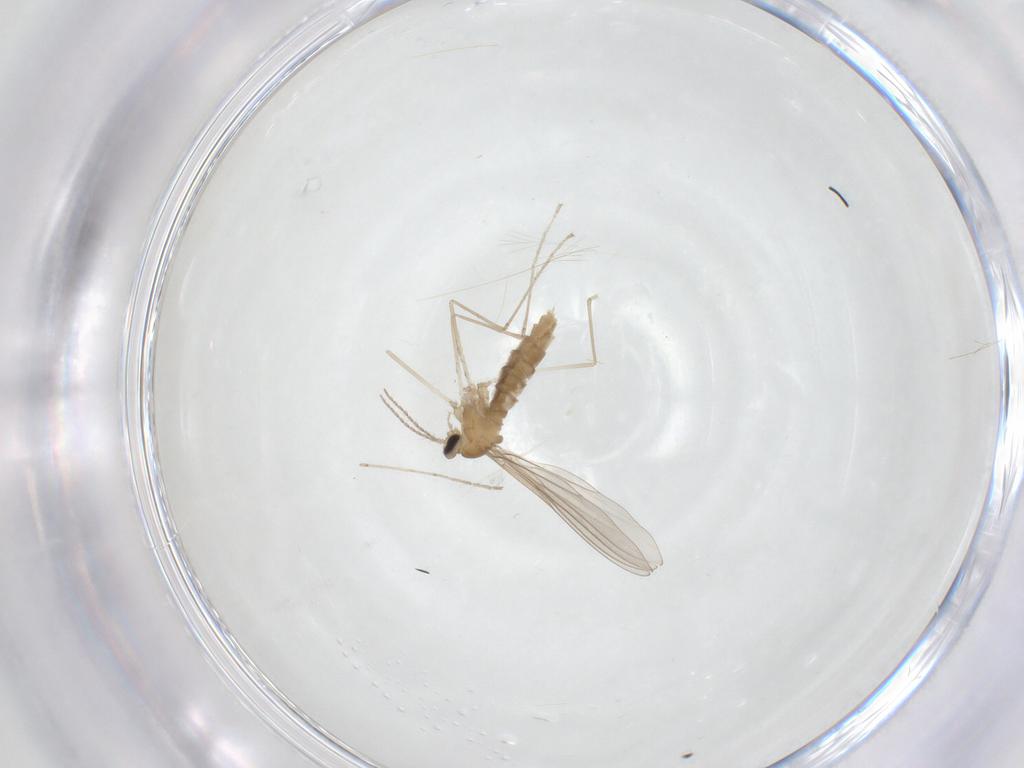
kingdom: Animalia
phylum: Arthropoda
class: Insecta
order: Diptera
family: Cecidomyiidae
